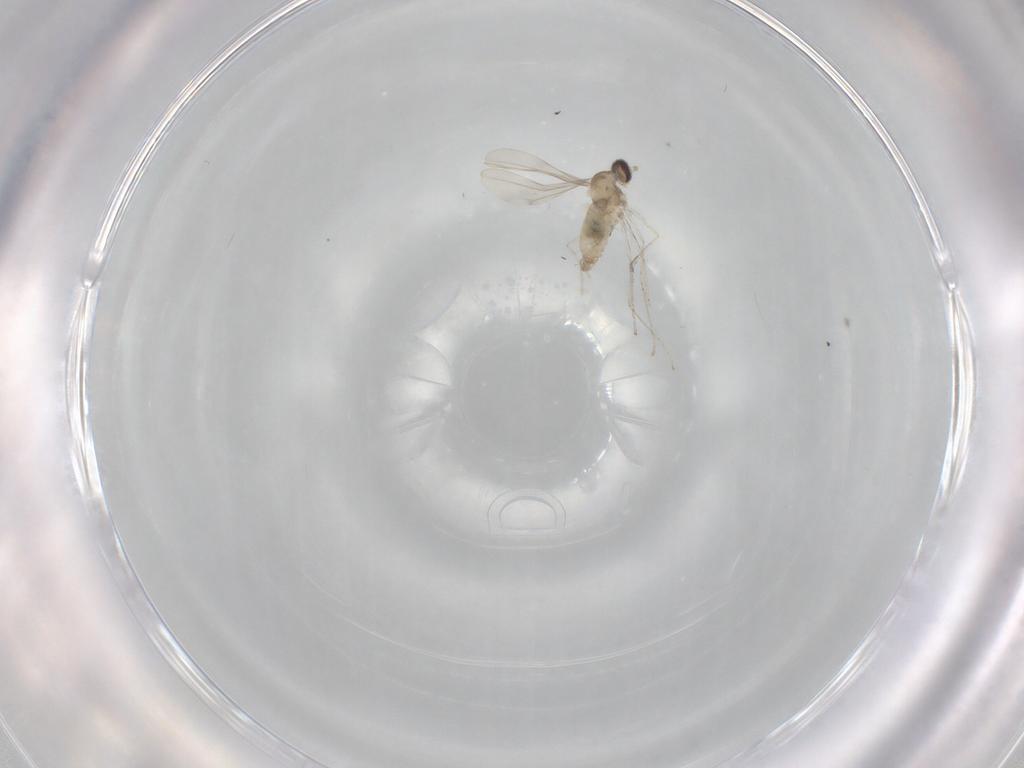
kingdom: Animalia
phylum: Arthropoda
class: Insecta
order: Diptera
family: Cecidomyiidae
